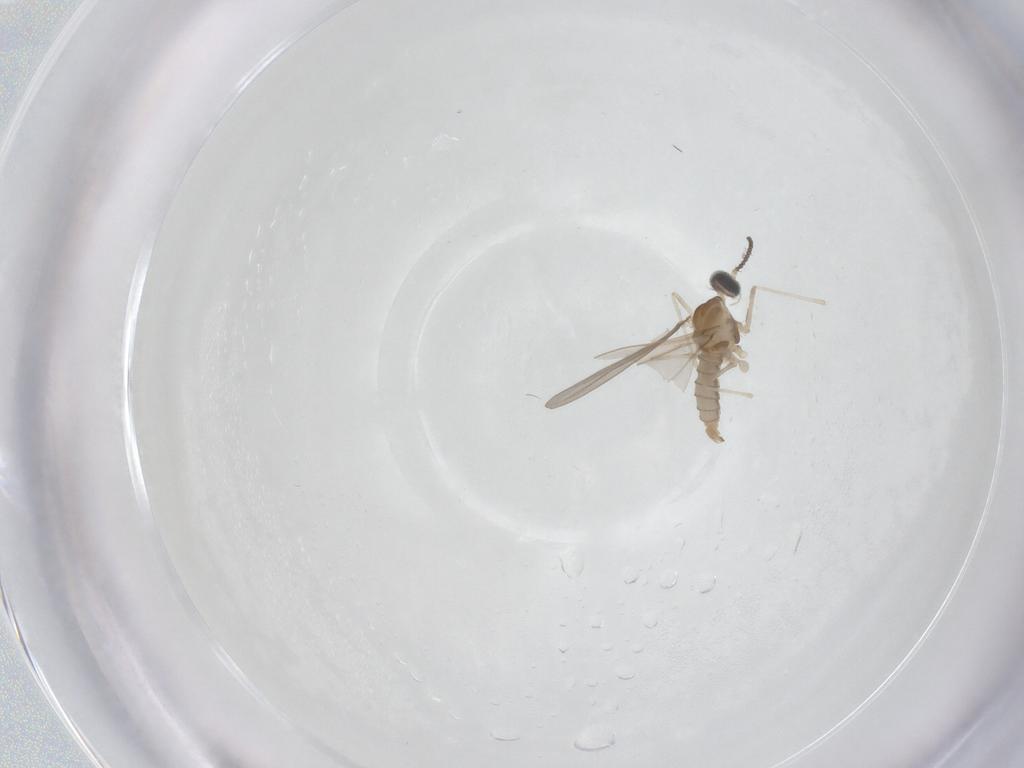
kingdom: Animalia
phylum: Arthropoda
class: Insecta
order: Diptera
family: Cecidomyiidae
